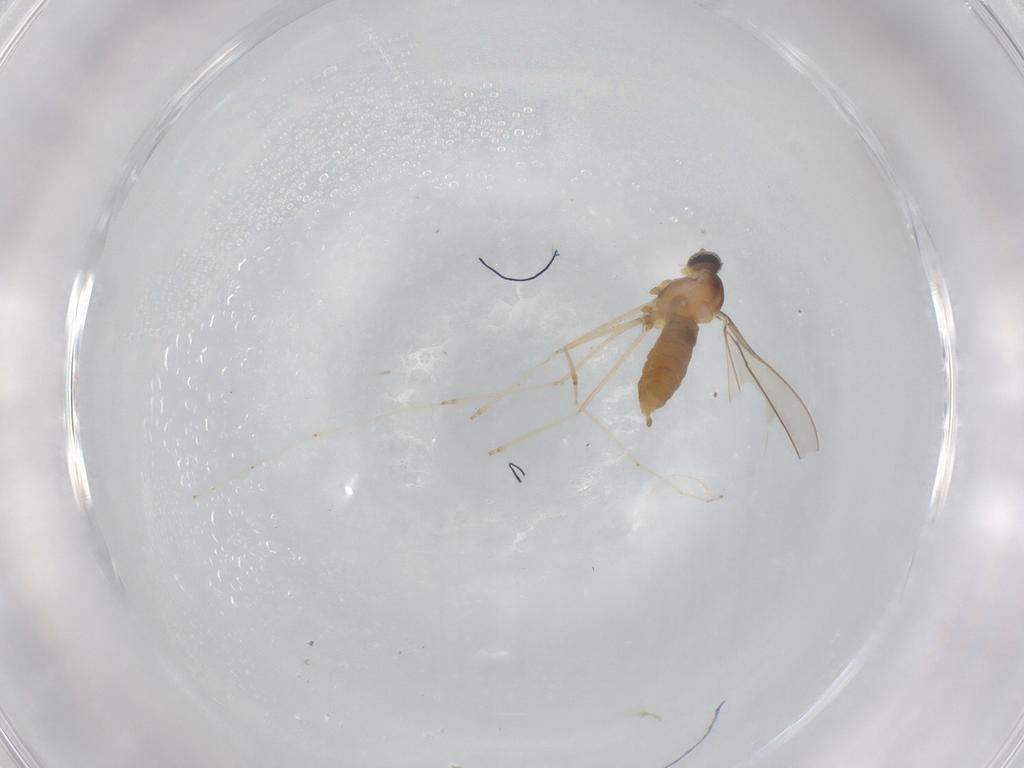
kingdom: Animalia
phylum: Arthropoda
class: Insecta
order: Diptera
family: Cecidomyiidae
